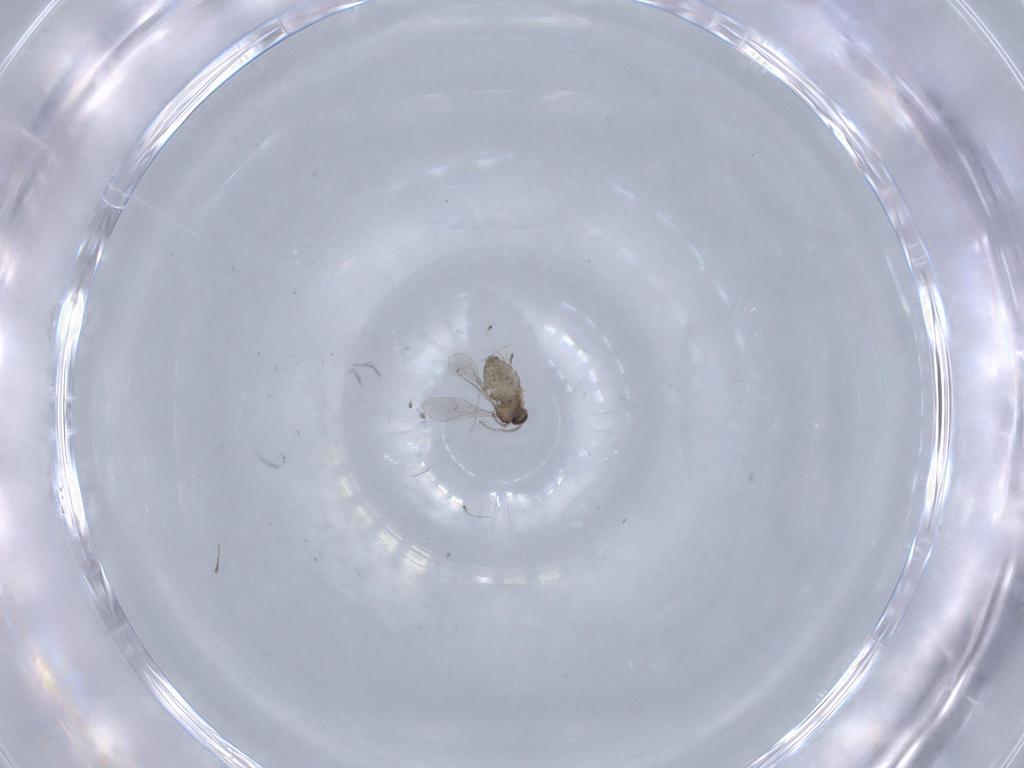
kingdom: Animalia
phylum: Arthropoda
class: Insecta
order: Diptera
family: Cecidomyiidae
